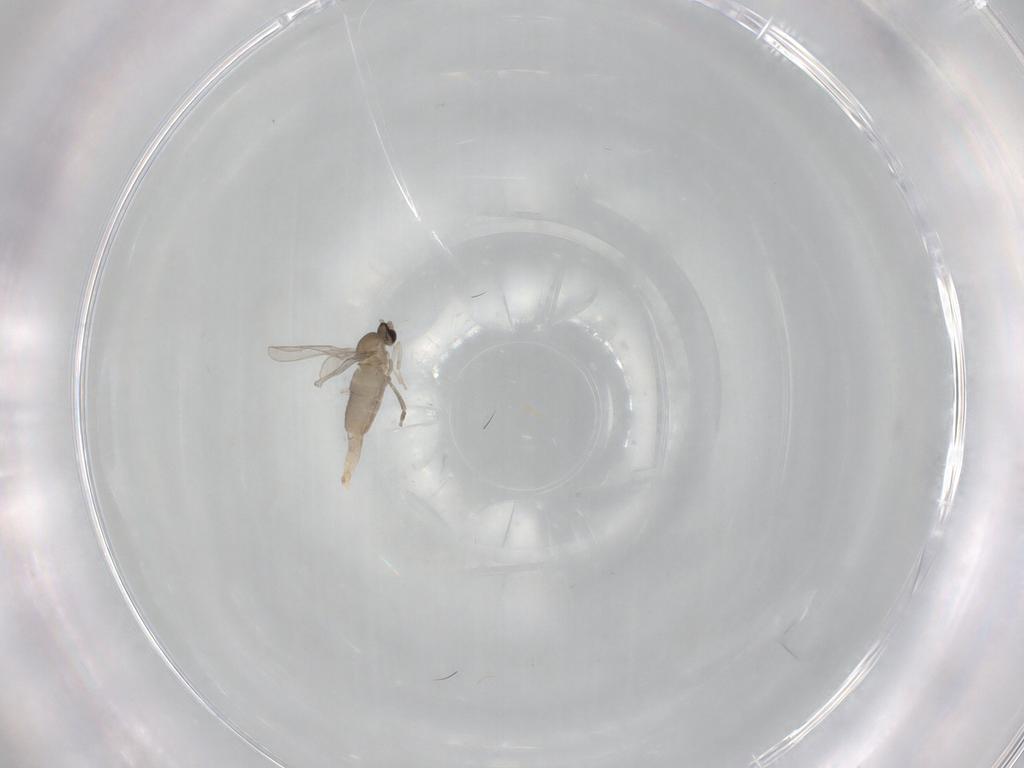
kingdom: Animalia
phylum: Arthropoda
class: Insecta
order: Diptera
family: Cecidomyiidae
